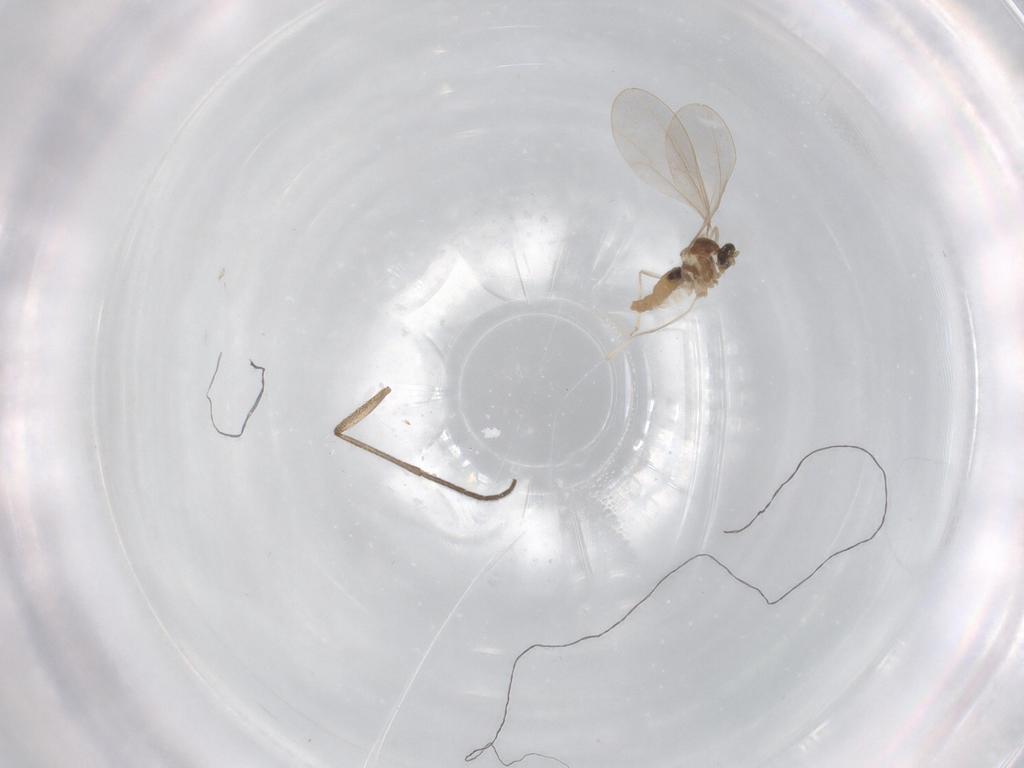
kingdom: Animalia
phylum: Arthropoda
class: Insecta
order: Diptera
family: Cecidomyiidae
